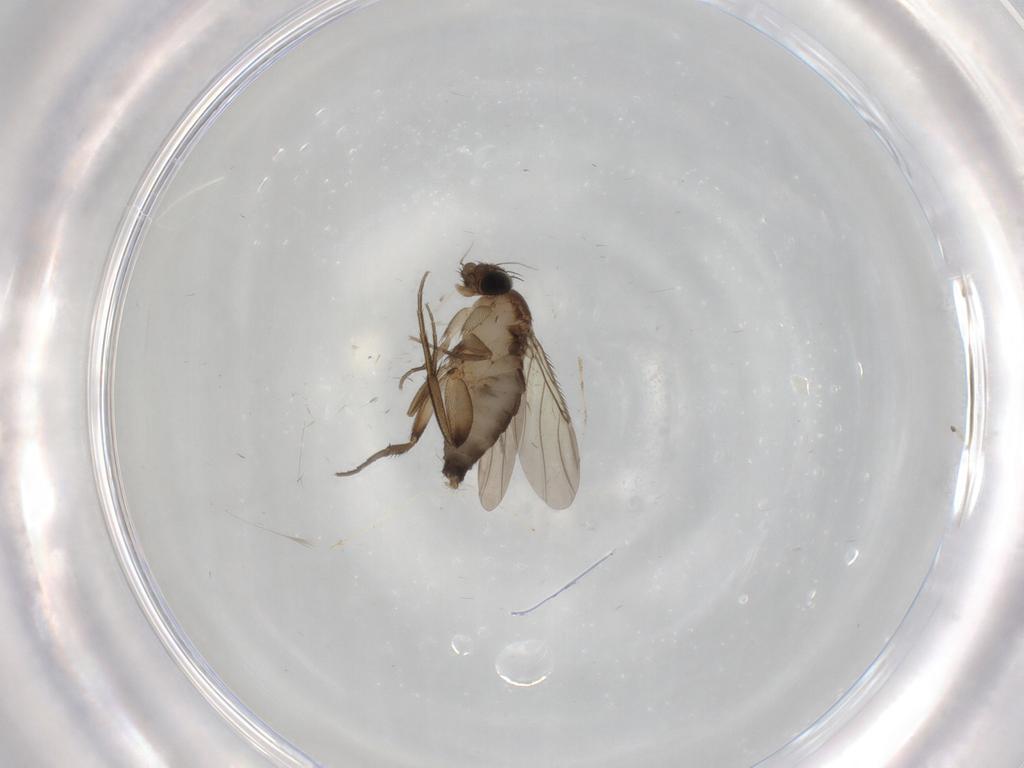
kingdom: Animalia
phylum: Arthropoda
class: Insecta
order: Diptera
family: Phoridae
